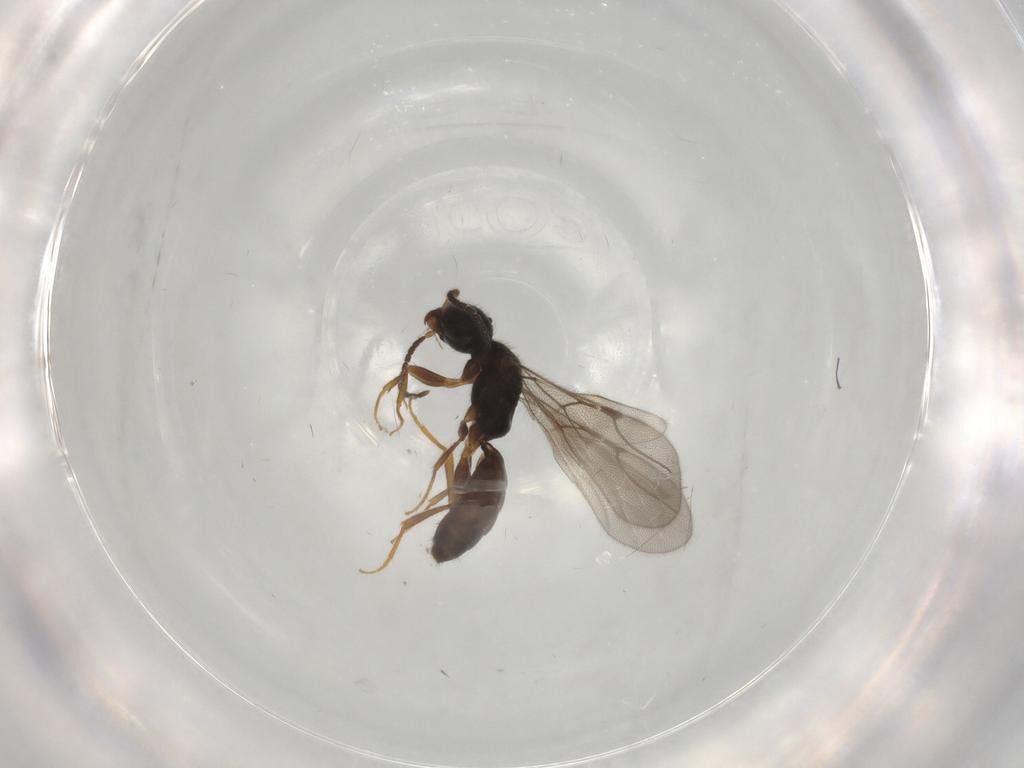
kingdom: Animalia
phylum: Arthropoda
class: Insecta
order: Hymenoptera
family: Bethylidae
